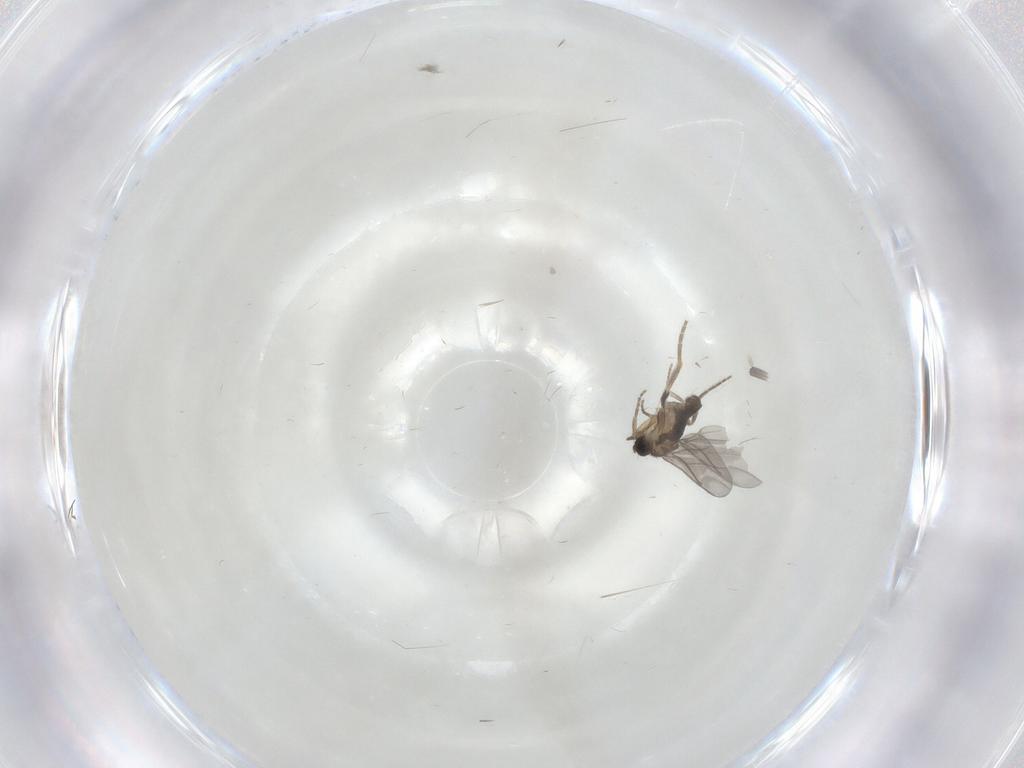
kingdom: Animalia
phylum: Arthropoda
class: Insecta
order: Diptera
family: Phoridae
